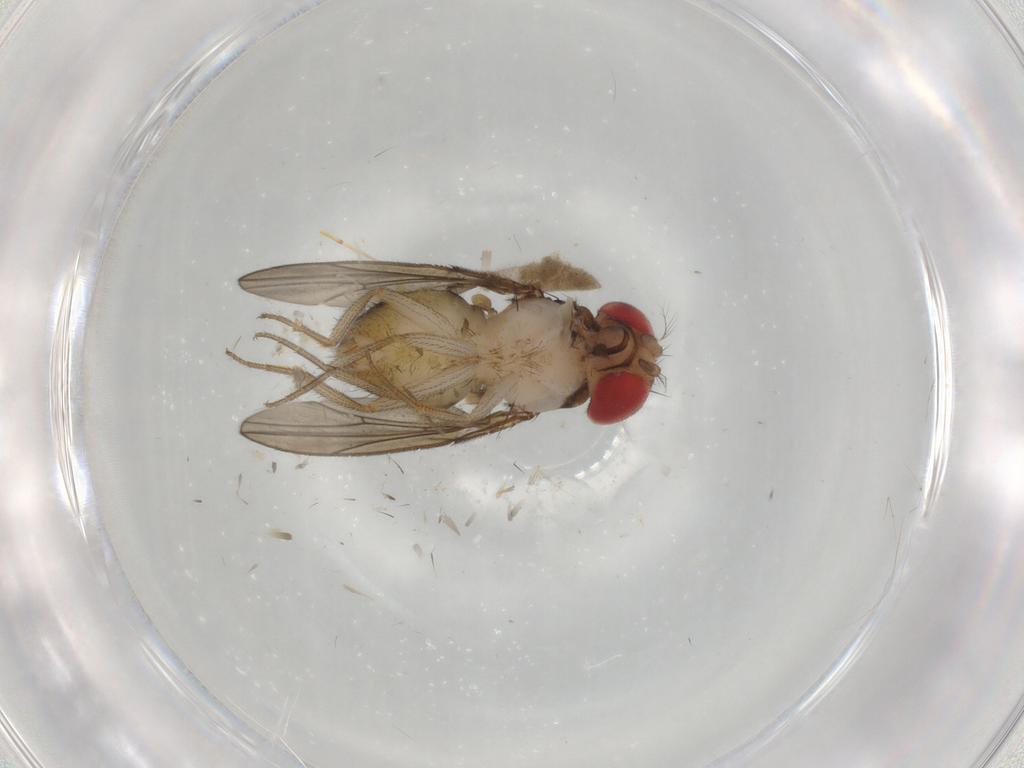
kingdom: Animalia
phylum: Arthropoda
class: Insecta
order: Diptera
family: Drosophilidae
